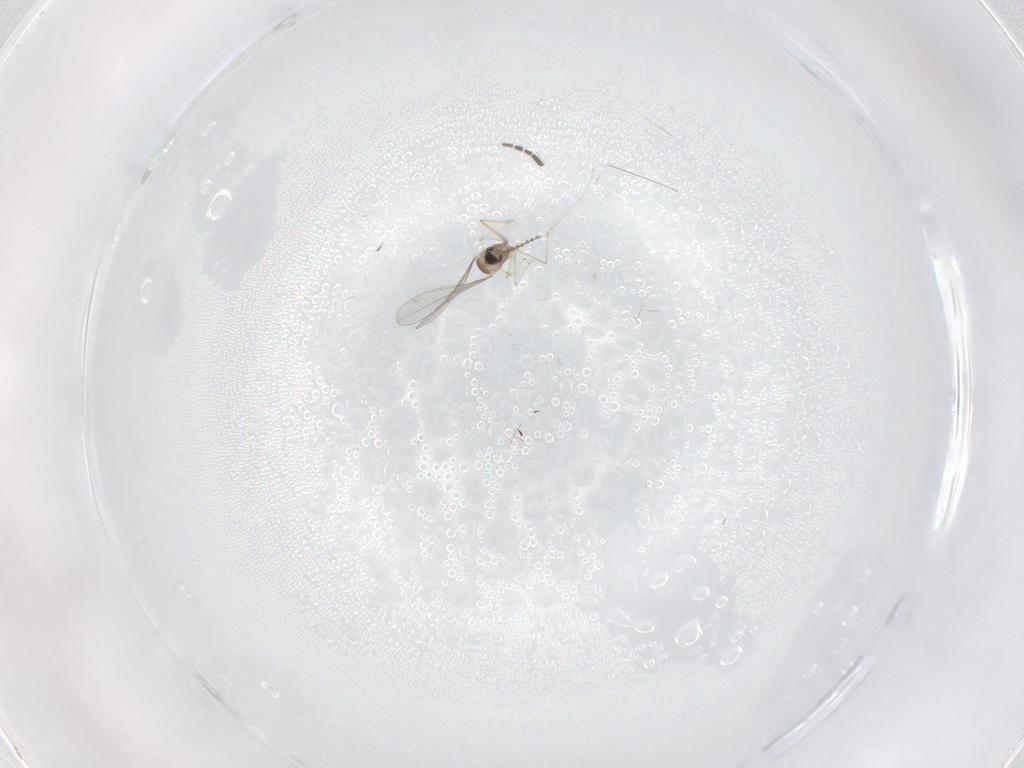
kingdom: Animalia
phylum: Arthropoda
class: Insecta
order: Diptera
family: Cecidomyiidae
